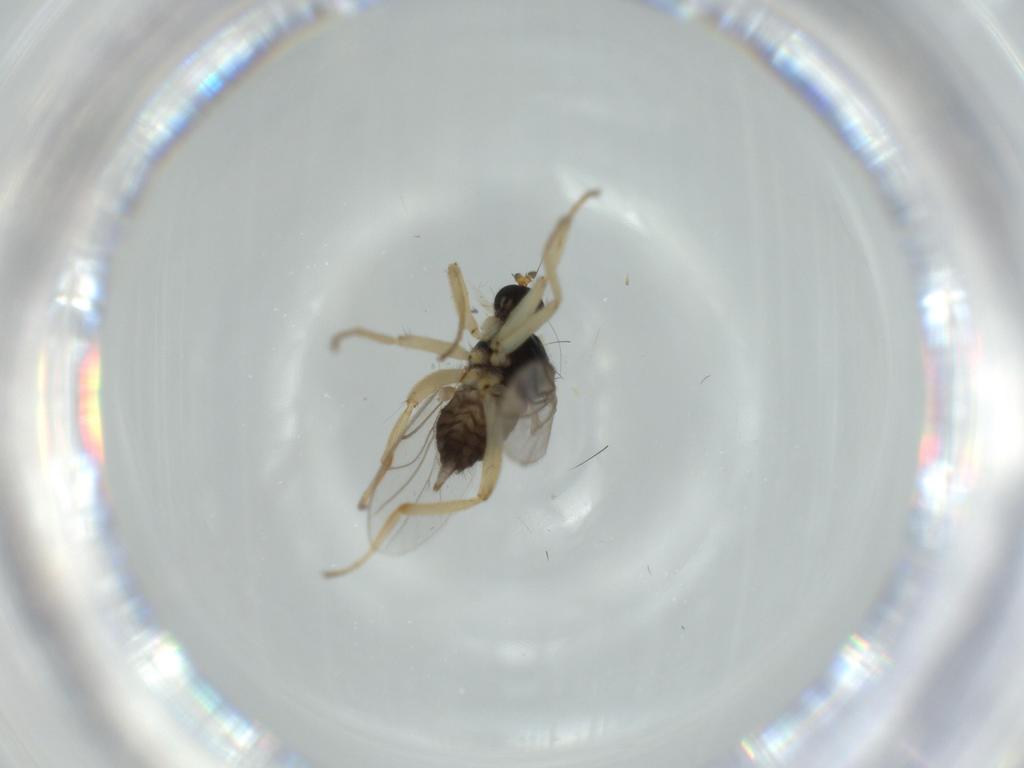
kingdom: Animalia
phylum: Arthropoda
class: Insecta
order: Diptera
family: Hybotidae
